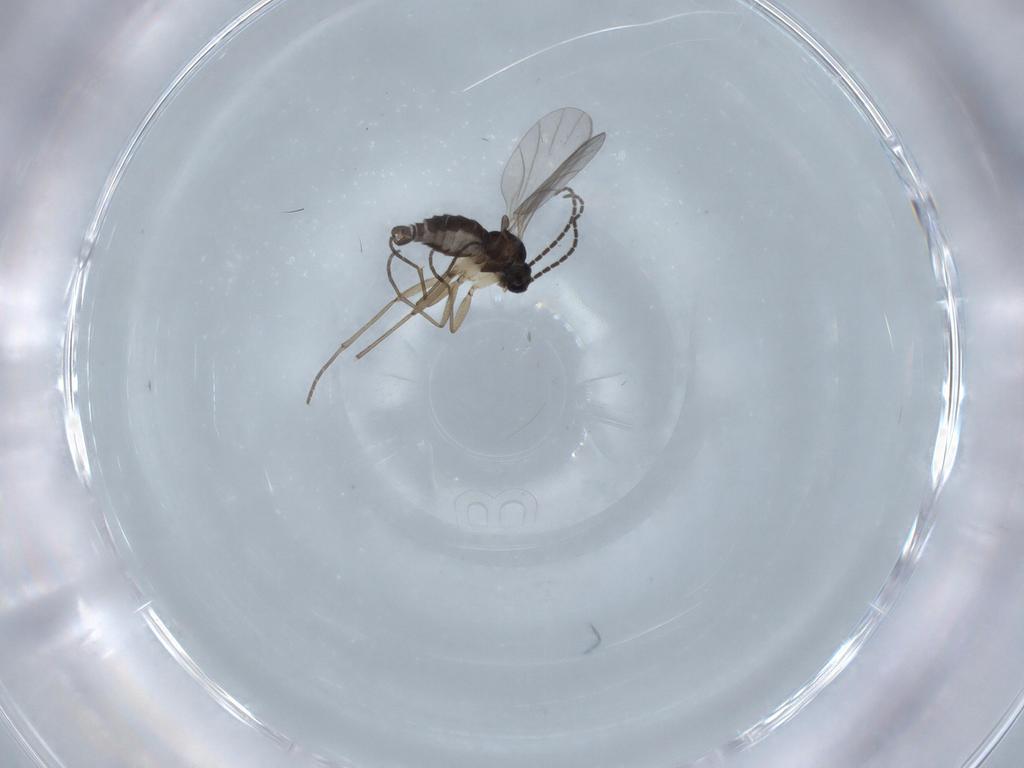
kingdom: Animalia
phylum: Arthropoda
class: Insecta
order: Diptera
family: Sciaridae
